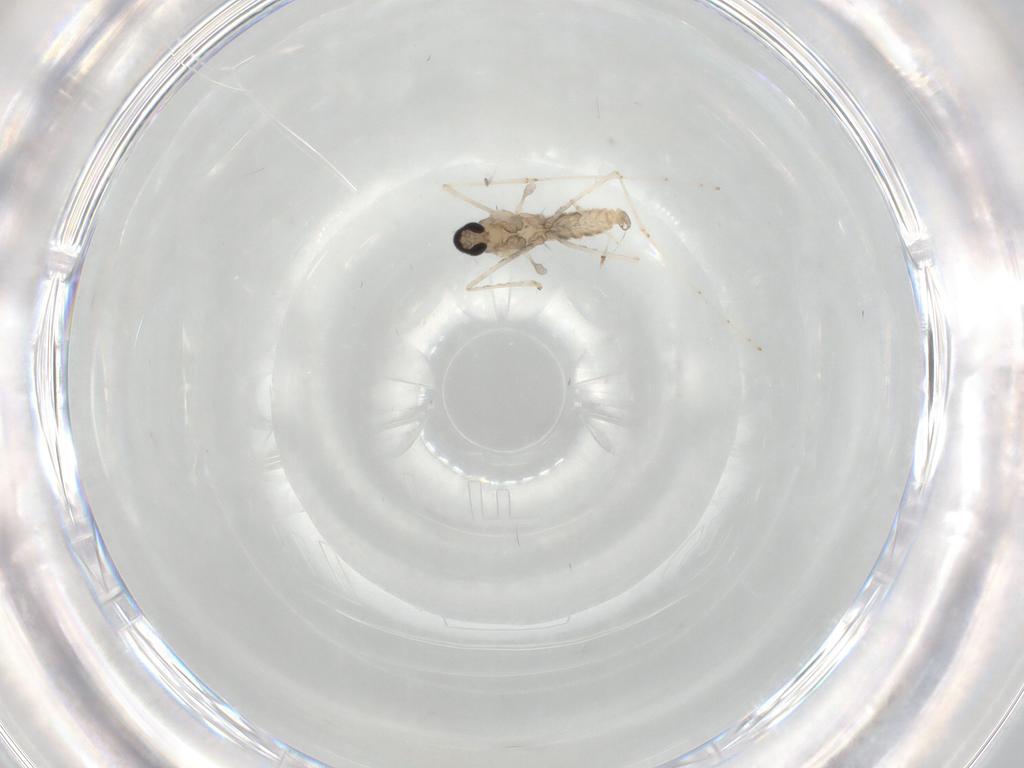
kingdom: Animalia
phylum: Arthropoda
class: Insecta
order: Diptera
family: Cecidomyiidae
